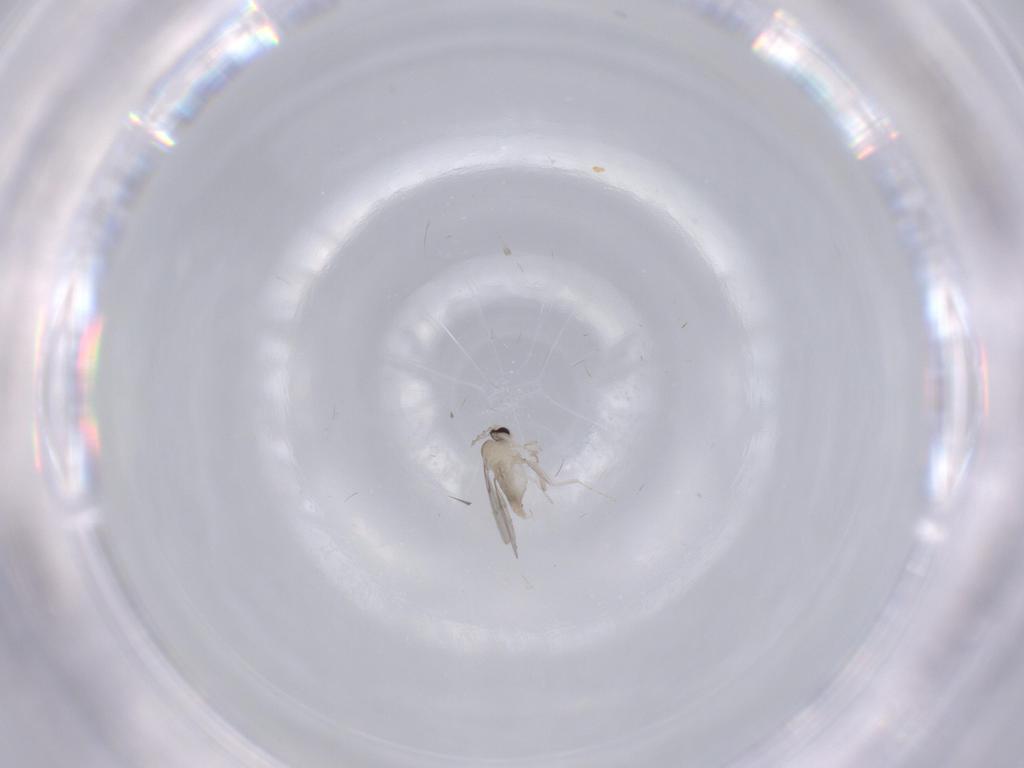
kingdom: Animalia
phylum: Arthropoda
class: Insecta
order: Diptera
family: Cecidomyiidae
